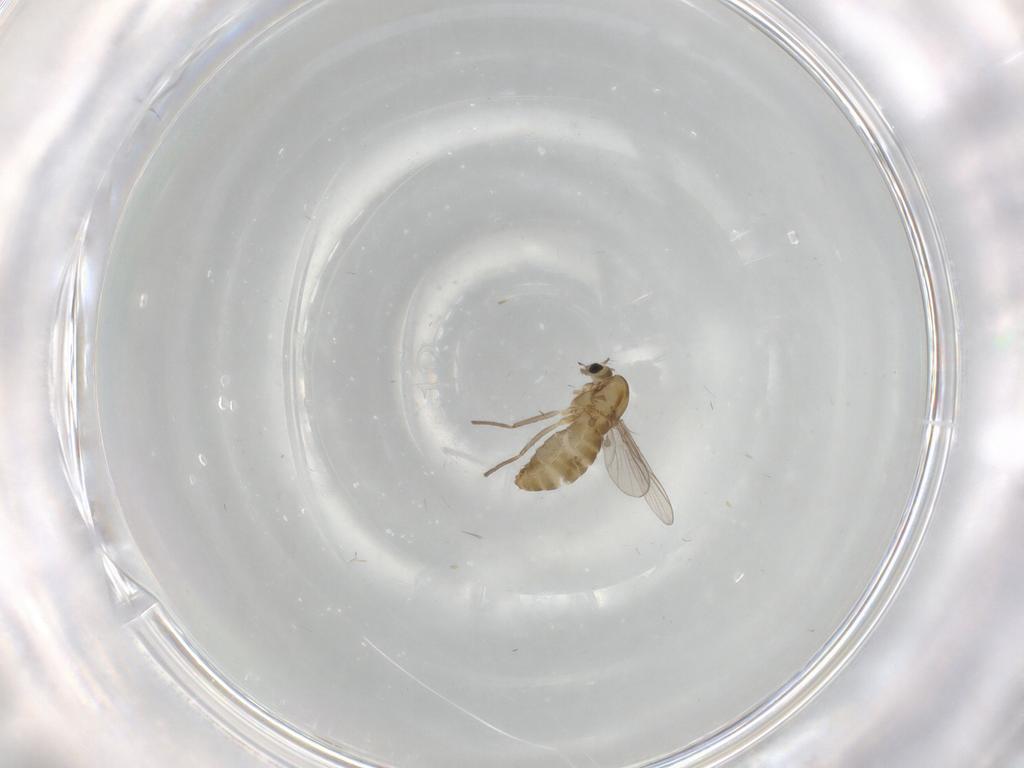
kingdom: Animalia
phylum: Arthropoda
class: Insecta
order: Diptera
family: Chironomidae
